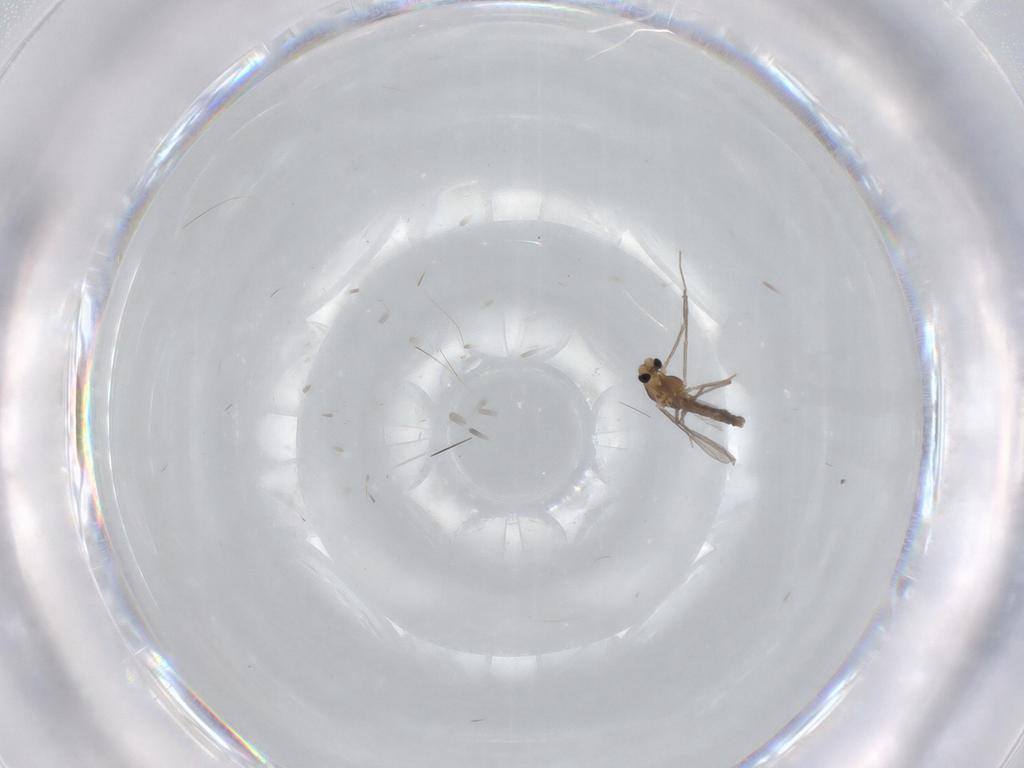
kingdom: Animalia
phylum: Arthropoda
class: Insecta
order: Diptera
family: Chironomidae
